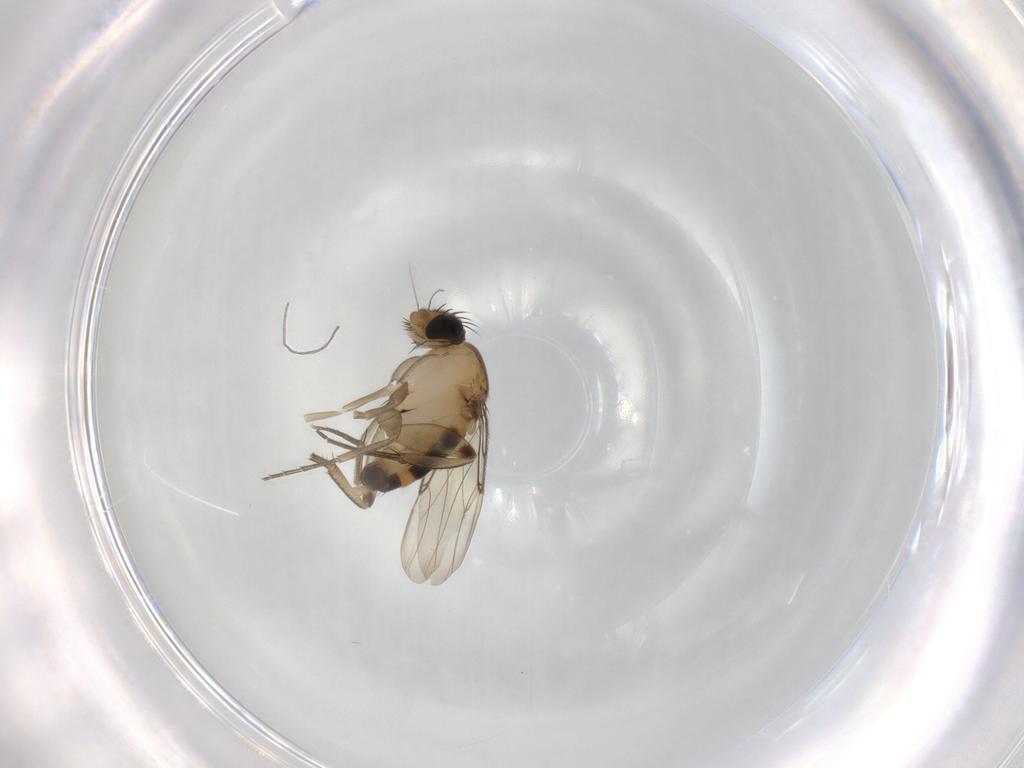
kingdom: Animalia
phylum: Arthropoda
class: Insecta
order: Diptera
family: Phoridae
